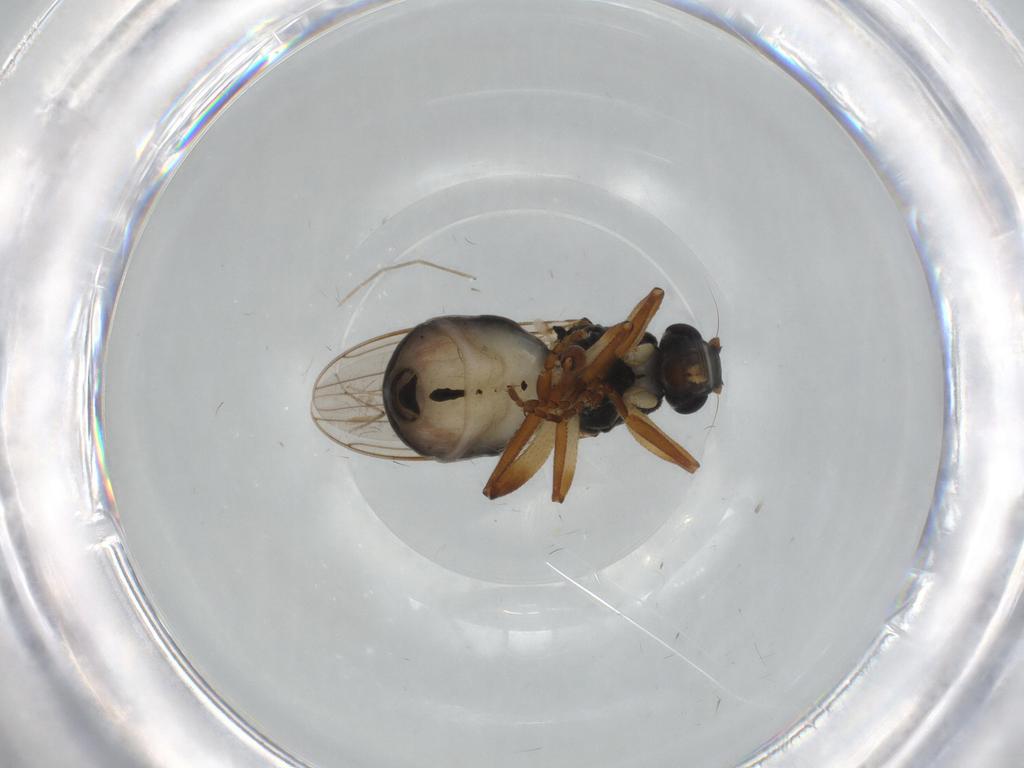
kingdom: Animalia
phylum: Arthropoda
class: Insecta
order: Diptera
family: Chironomidae
